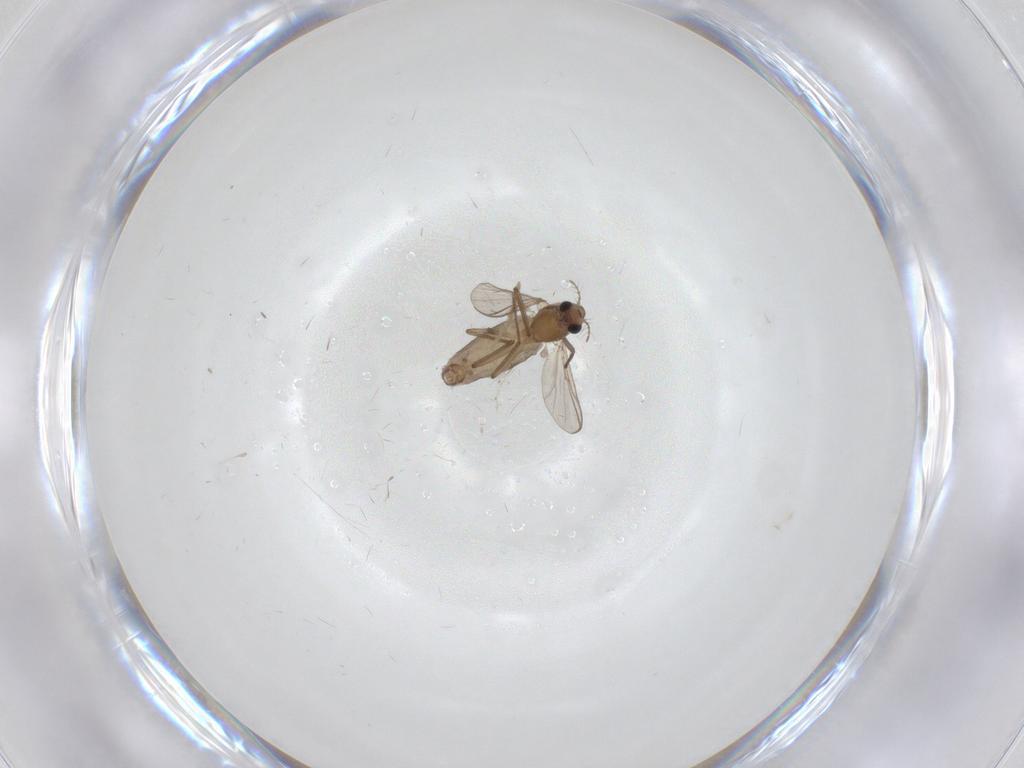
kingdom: Animalia
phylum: Arthropoda
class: Insecta
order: Diptera
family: Chironomidae
